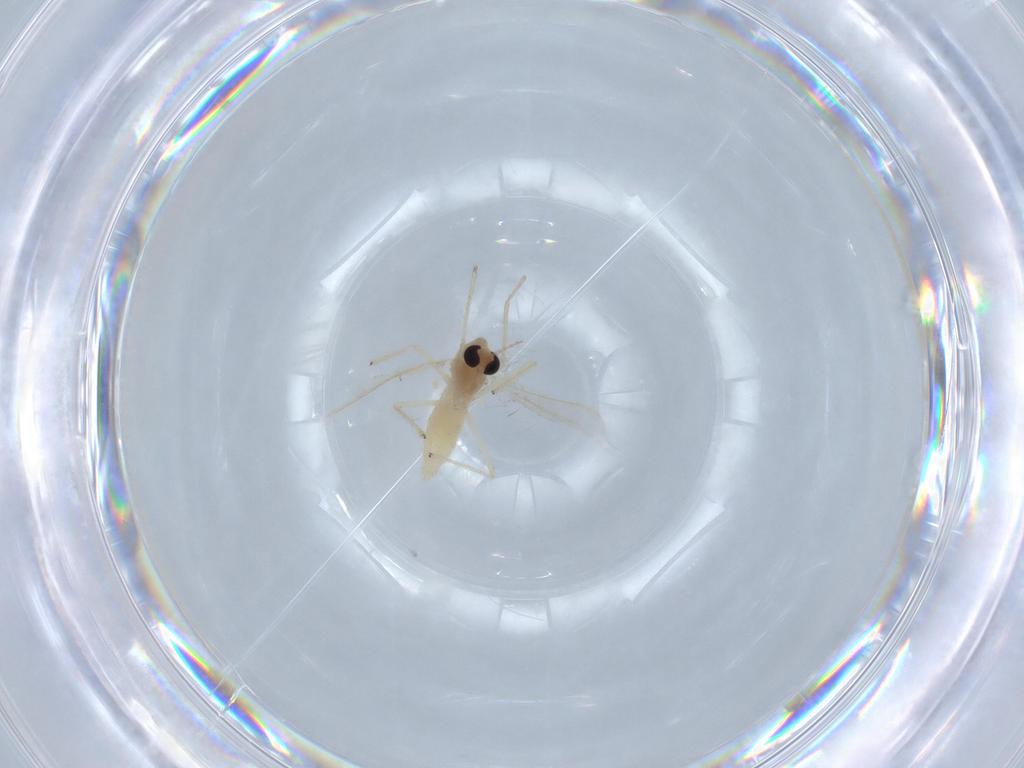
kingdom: Animalia
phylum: Arthropoda
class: Insecta
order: Diptera
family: Chironomidae
